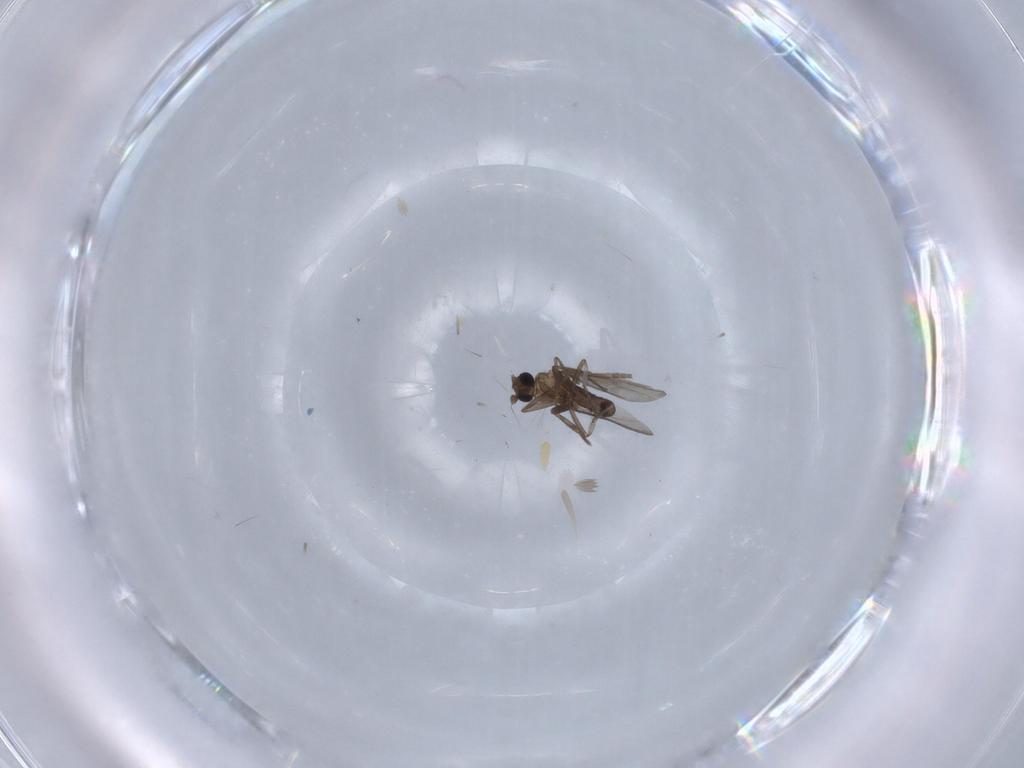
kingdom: Animalia
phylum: Arthropoda
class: Insecta
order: Diptera
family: Phoridae
